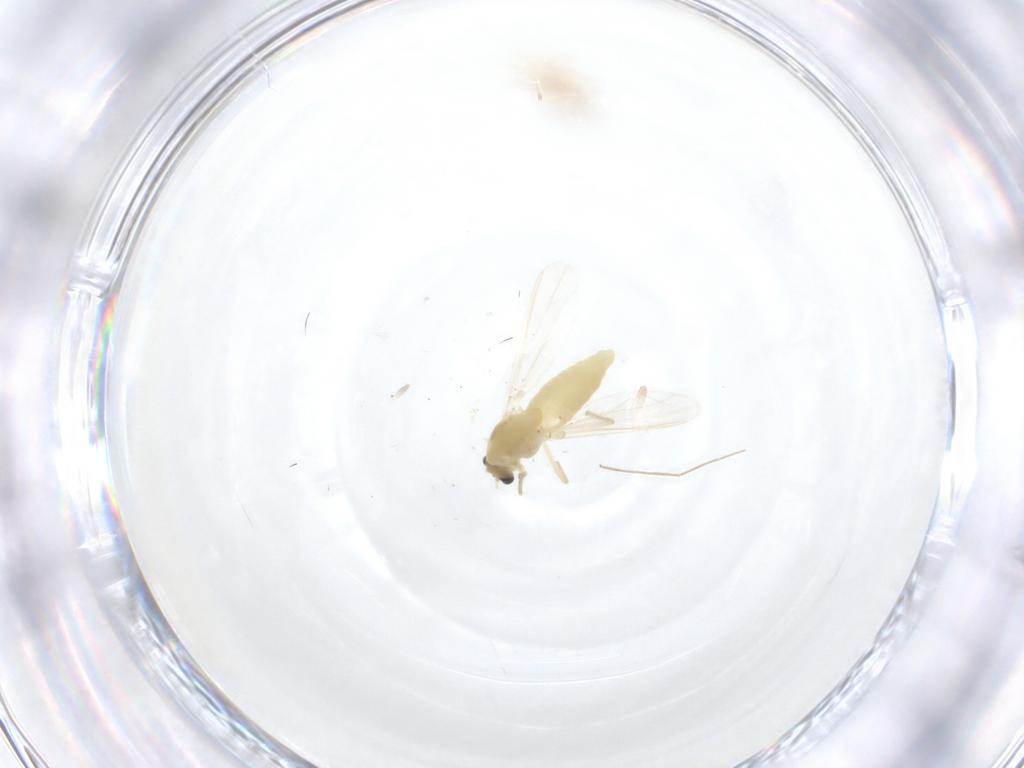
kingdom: Animalia
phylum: Arthropoda
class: Insecta
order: Diptera
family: Chironomidae
